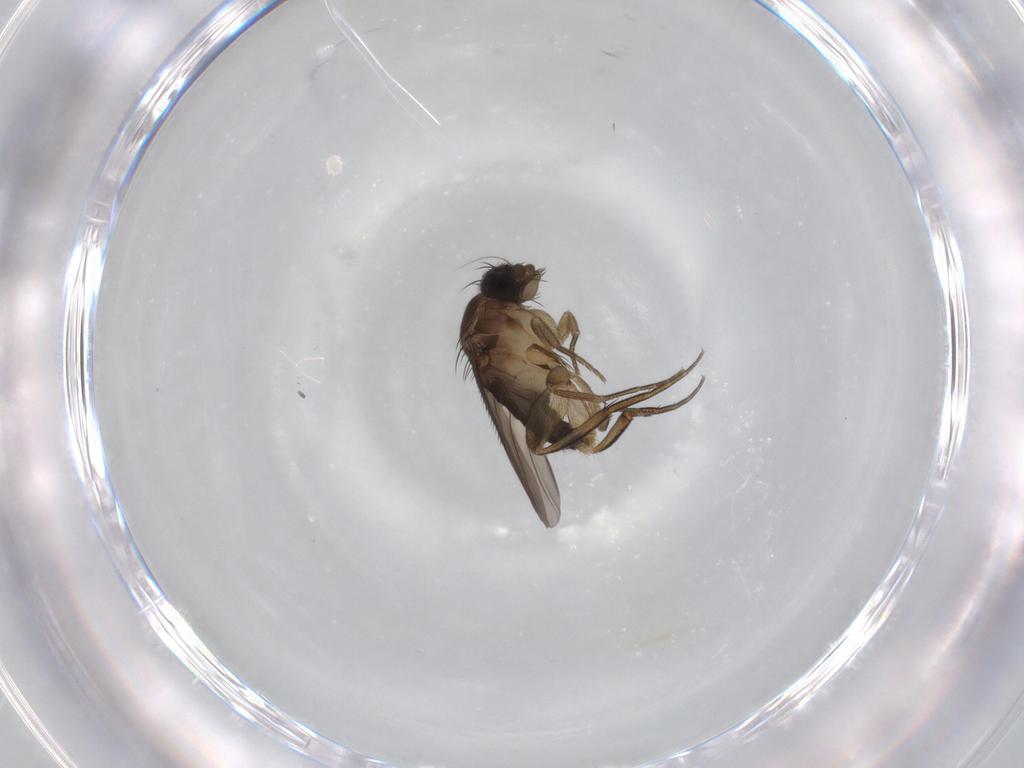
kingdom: Animalia
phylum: Arthropoda
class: Insecta
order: Diptera
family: Phoridae
